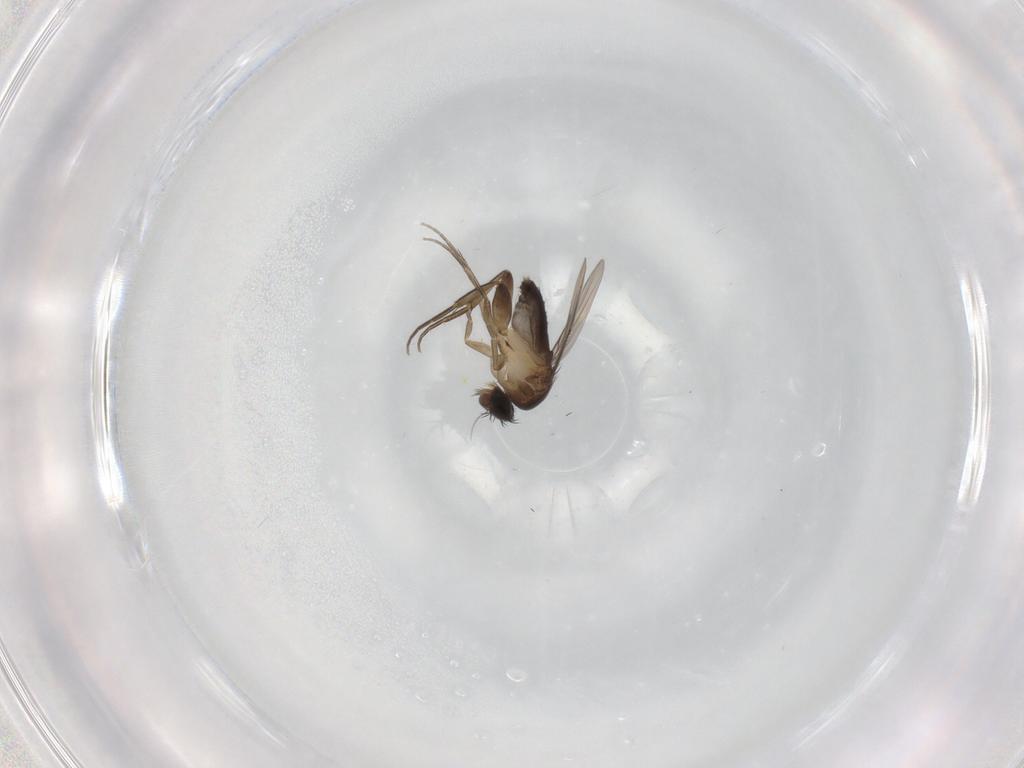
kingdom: Animalia
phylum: Arthropoda
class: Insecta
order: Diptera
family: Phoridae
